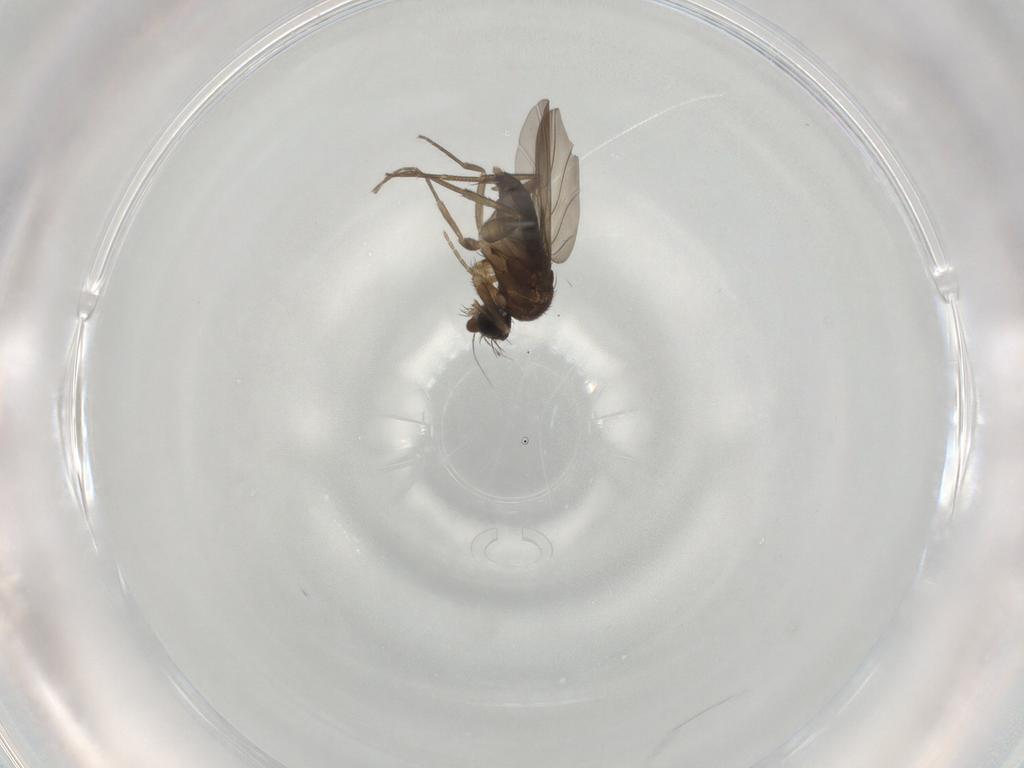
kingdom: Animalia
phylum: Arthropoda
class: Insecta
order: Diptera
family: Phoridae
